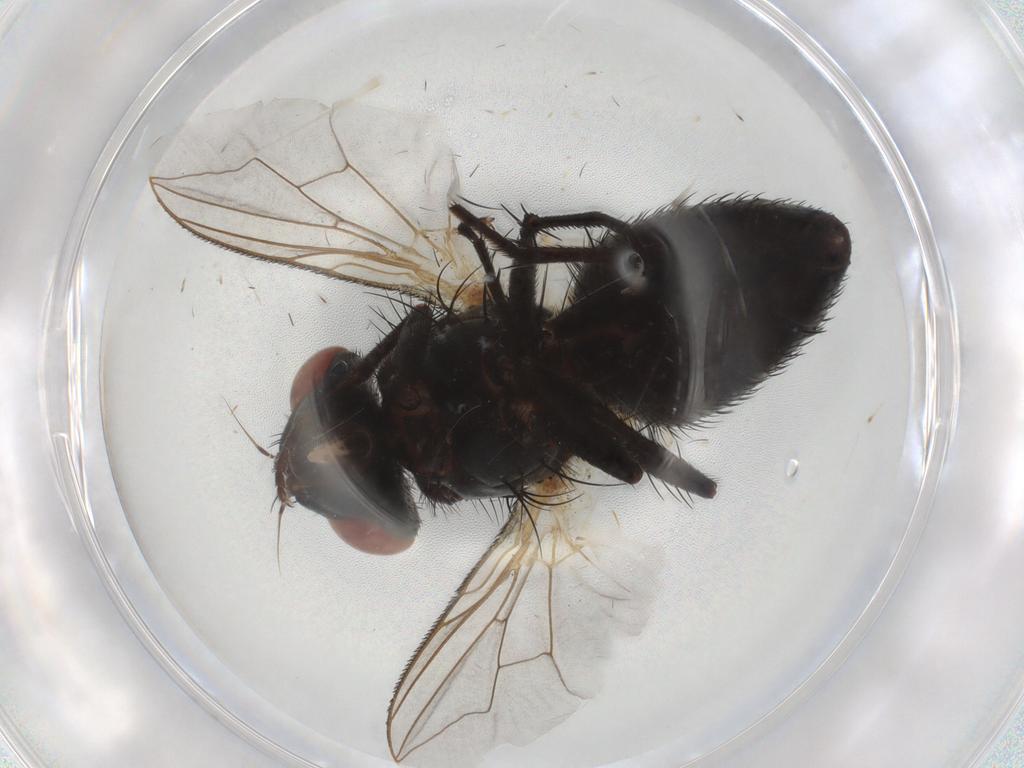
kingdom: Animalia
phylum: Arthropoda
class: Insecta
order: Diptera
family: Sarcophagidae
